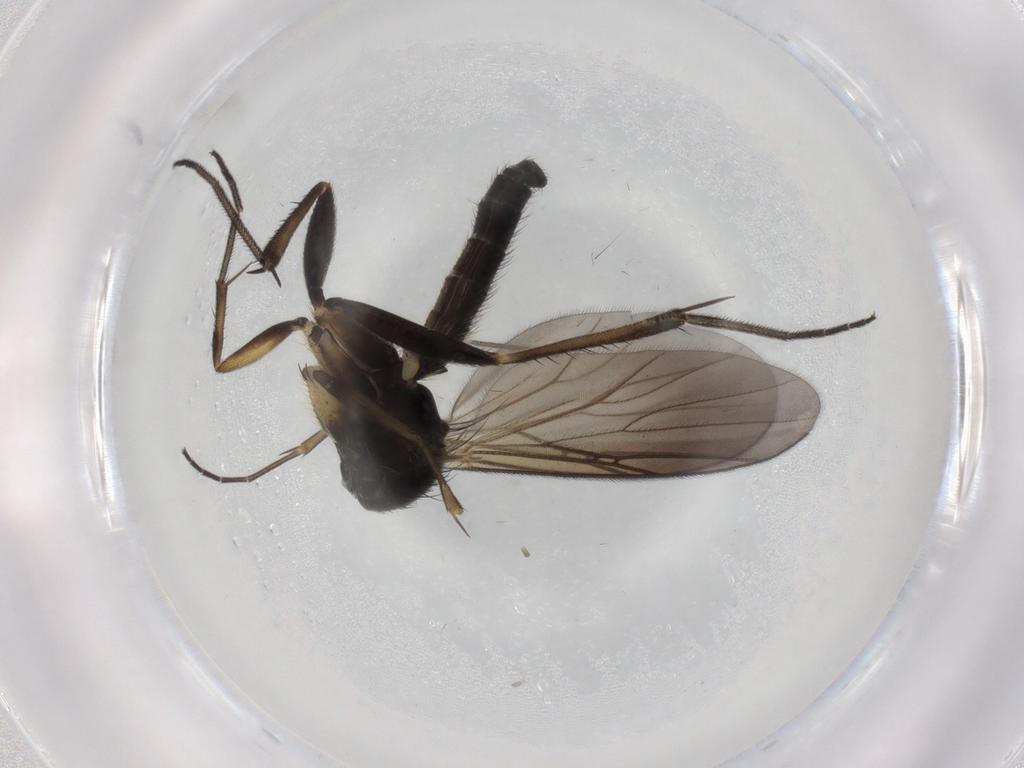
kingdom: Animalia
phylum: Arthropoda
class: Insecta
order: Diptera
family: Mycetophilidae
